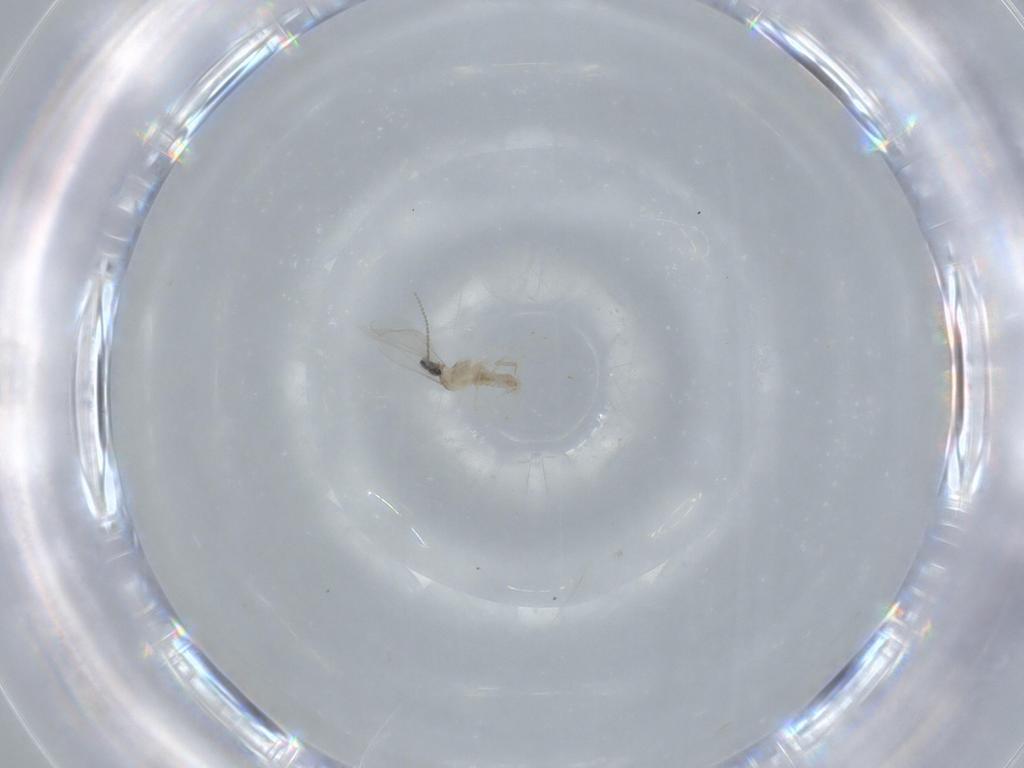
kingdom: Animalia
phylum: Arthropoda
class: Insecta
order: Diptera
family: Cecidomyiidae
